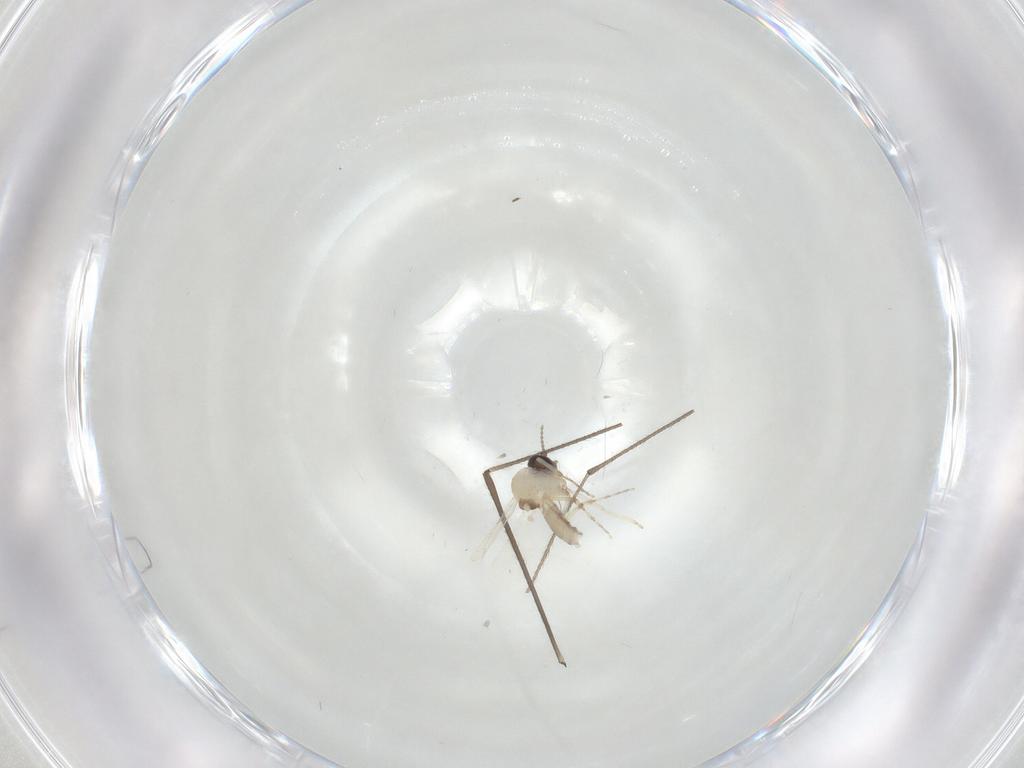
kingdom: Animalia
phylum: Arthropoda
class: Insecta
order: Diptera
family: Ceratopogonidae
